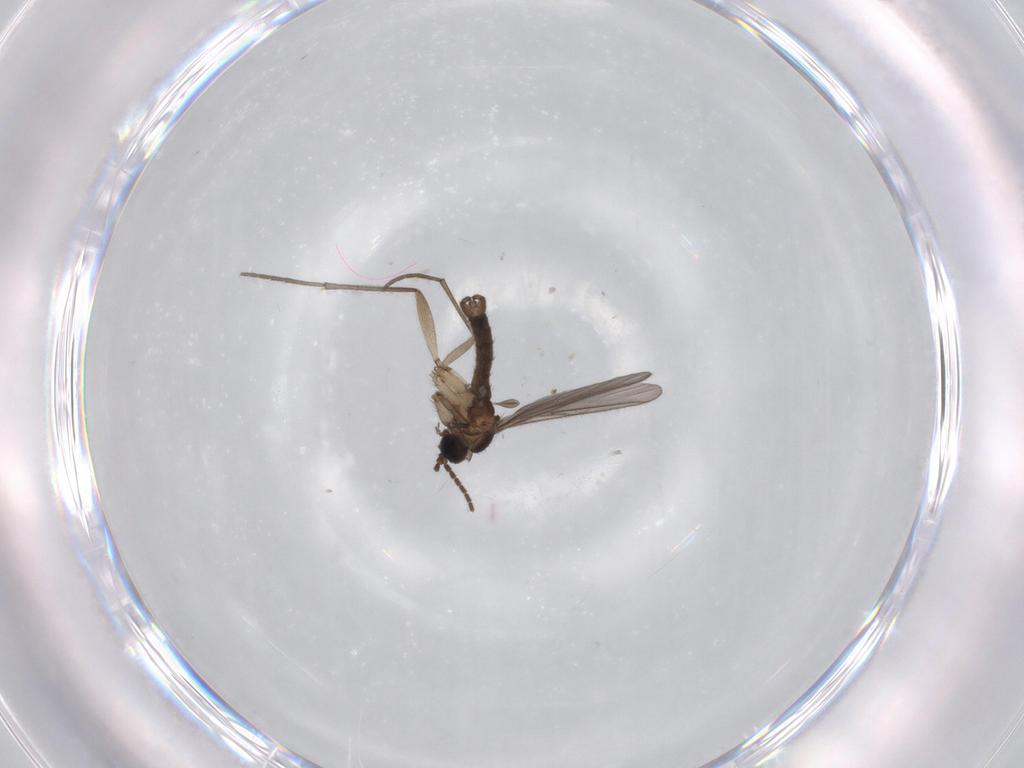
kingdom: Animalia
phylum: Arthropoda
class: Insecta
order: Diptera
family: Sciaridae
